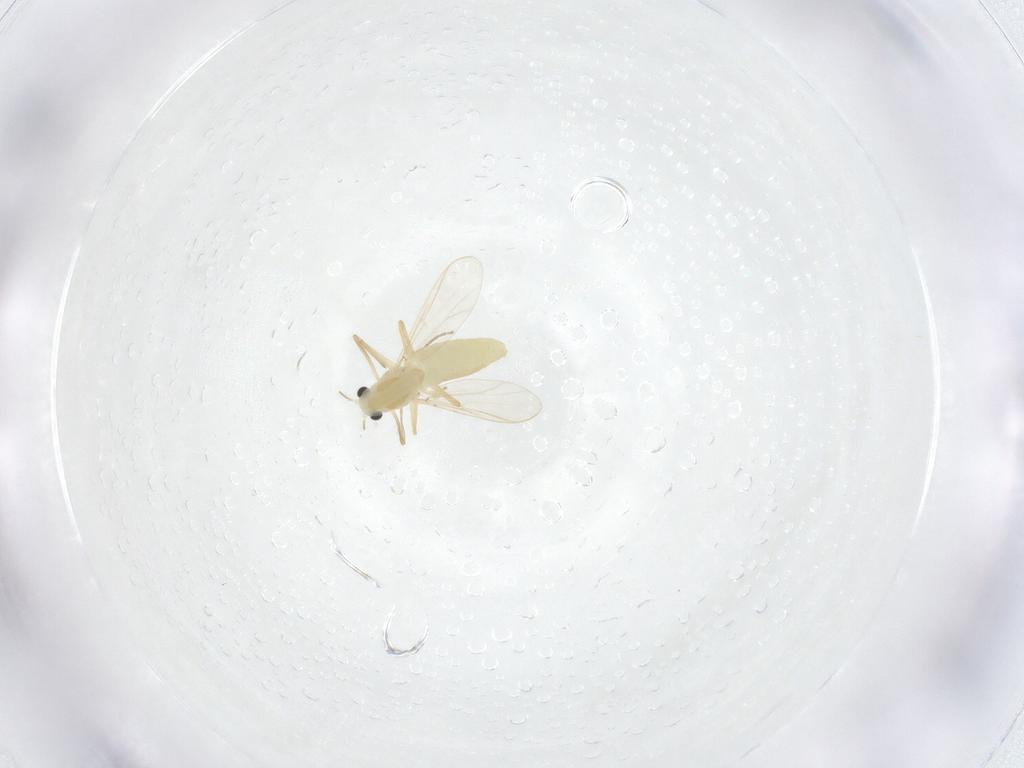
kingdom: Animalia
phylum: Arthropoda
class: Insecta
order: Diptera
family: Chironomidae
